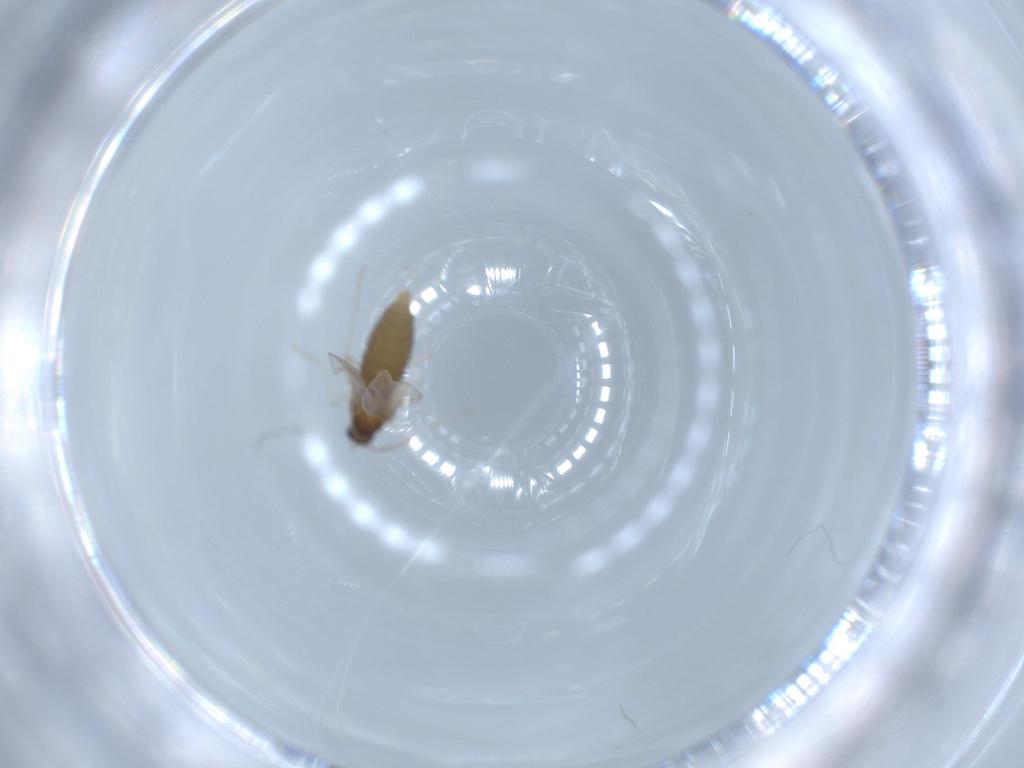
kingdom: Animalia
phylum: Arthropoda
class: Insecta
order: Diptera
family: Cecidomyiidae
